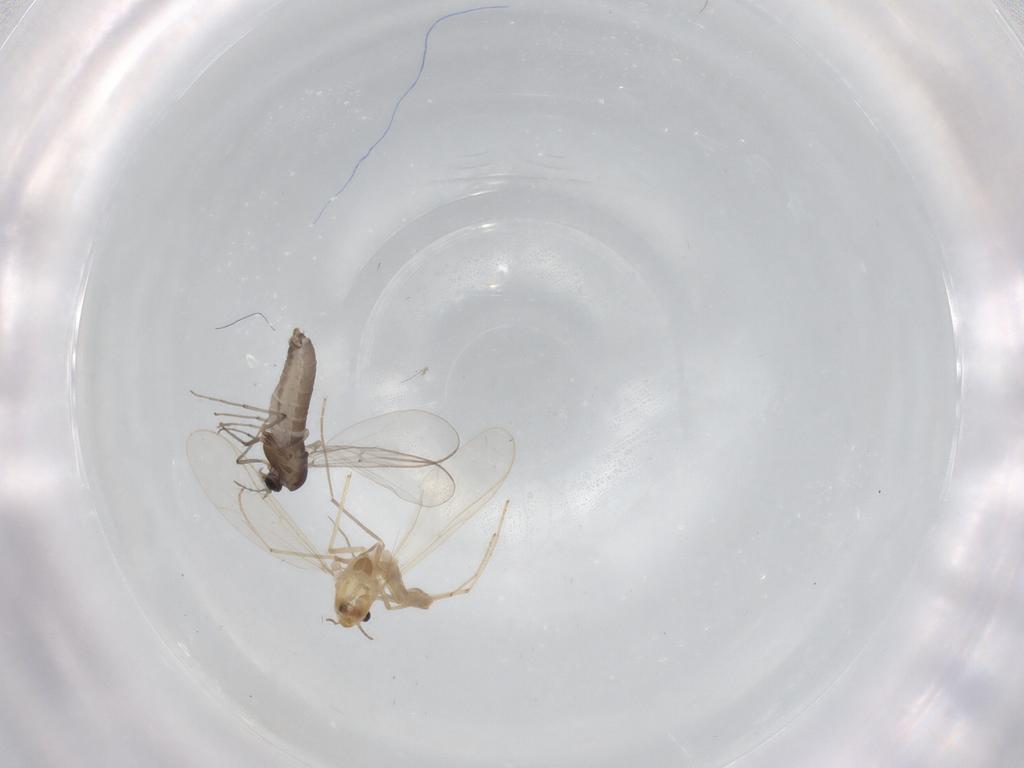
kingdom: Animalia
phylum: Arthropoda
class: Insecta
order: Diptera
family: Chironomidae
